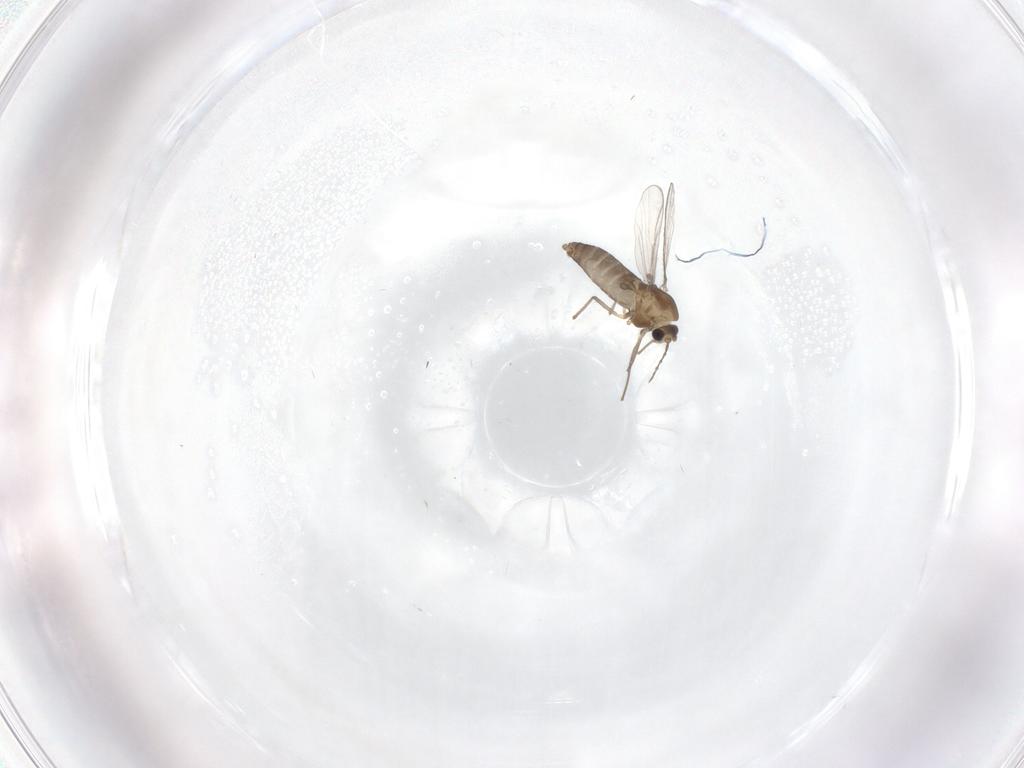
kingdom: Animalia
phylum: Arthropoda
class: Insecta
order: Diptera
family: Chironomidae
